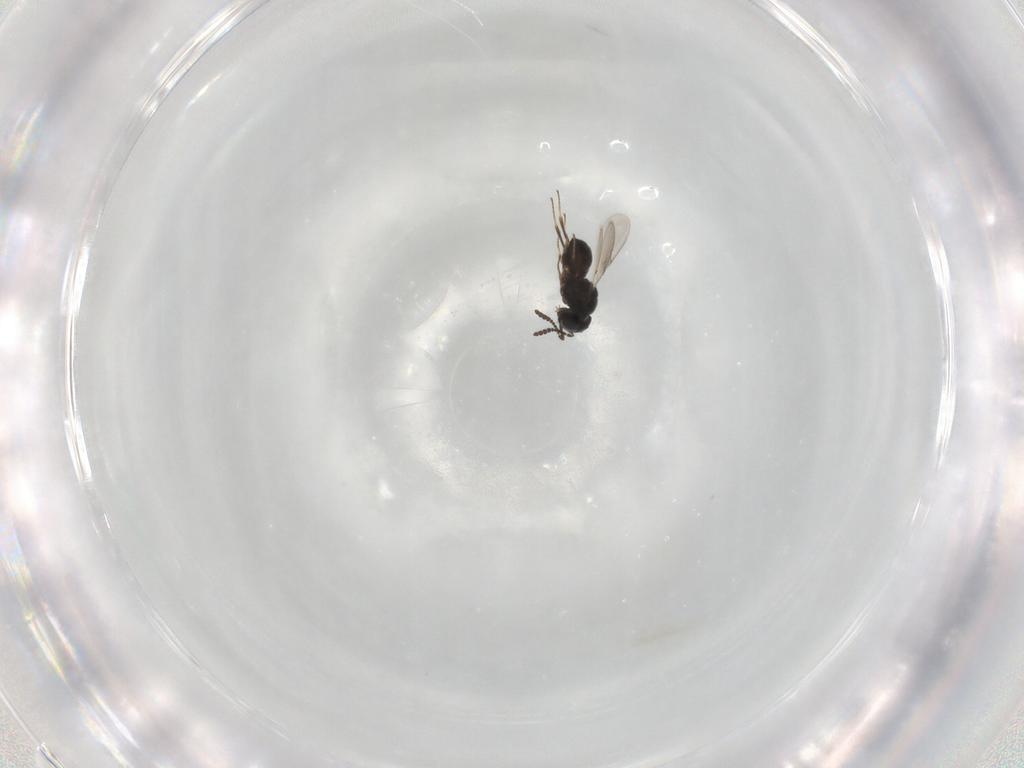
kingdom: Animalia
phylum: Arthropoda
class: Insecta
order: Hymenoptera
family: Scelionidae
